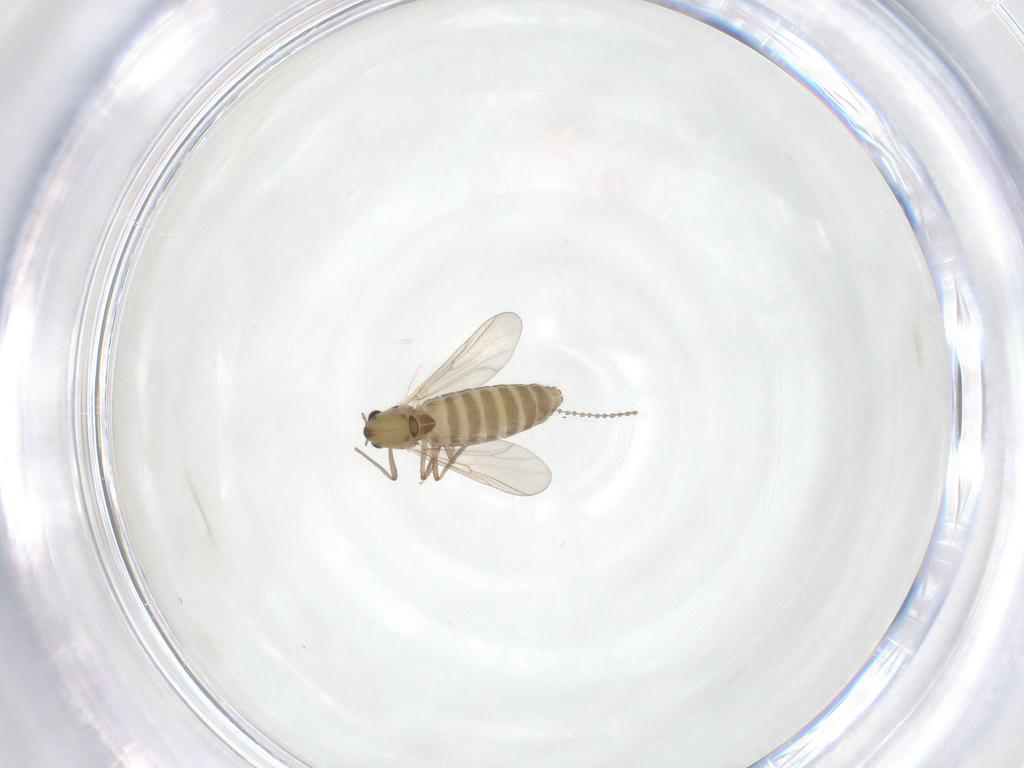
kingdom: Animalia
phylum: Arthropoda
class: Insecta
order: Diptera
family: Chironomidae
